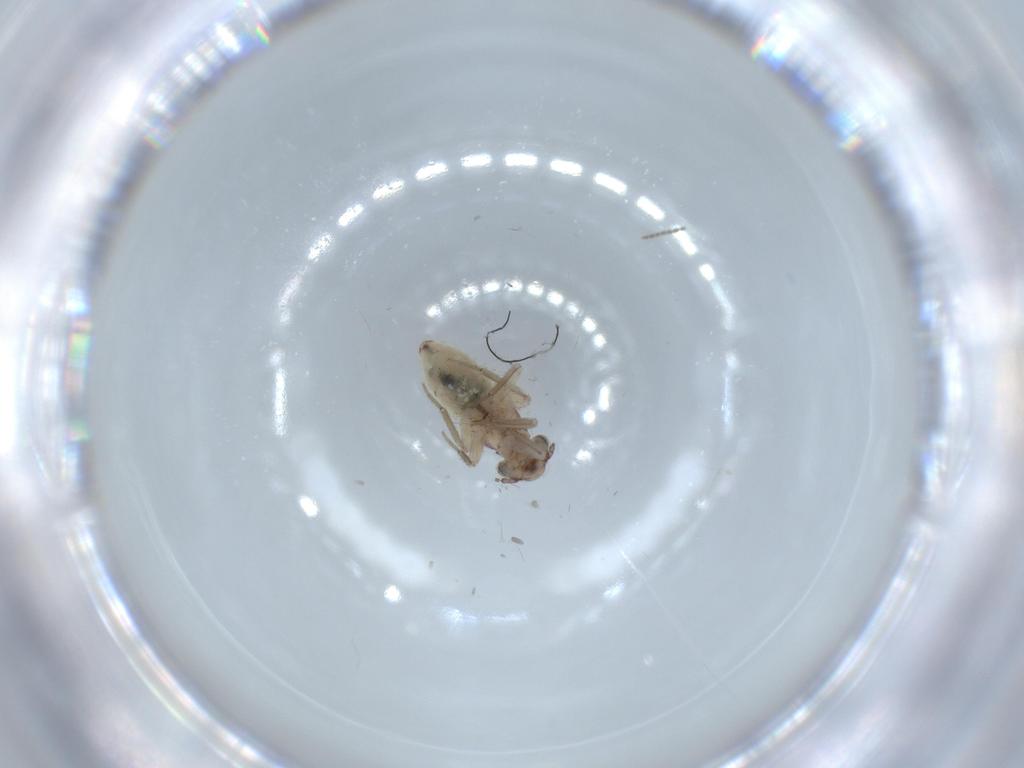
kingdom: Animalia
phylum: Arthropoda
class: Insecta
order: Psocodea
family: Lepidopsocidae
